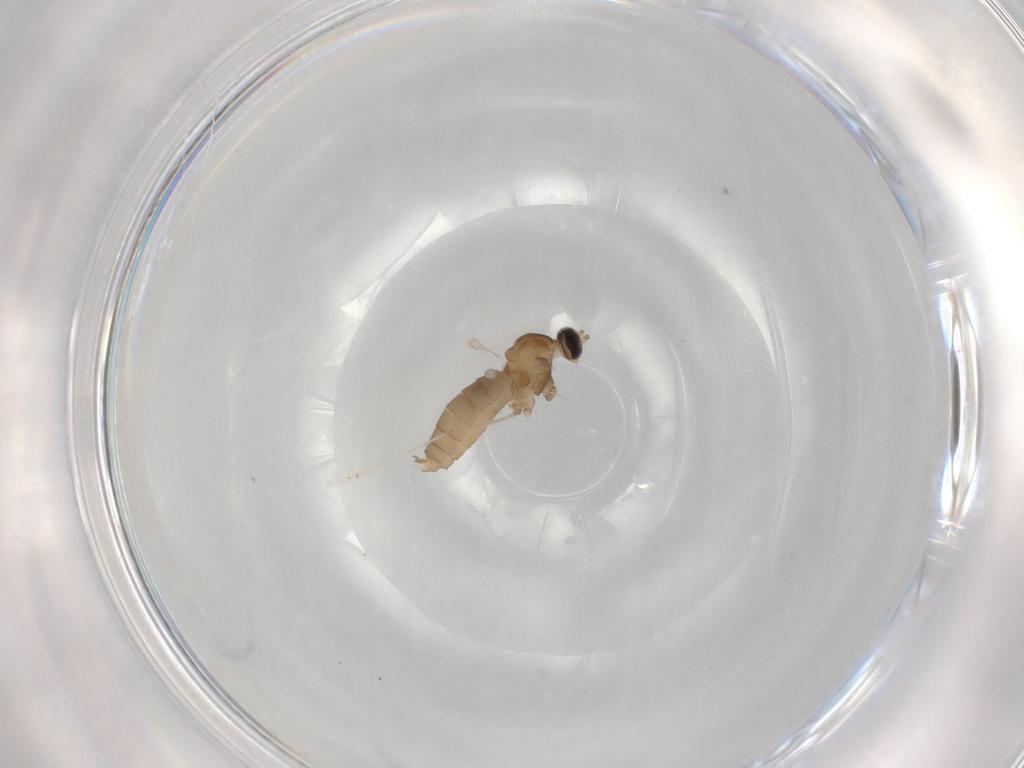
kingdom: Animalia
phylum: Arthropoda
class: Insecta
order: Diptera
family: Cecidomyiidae
